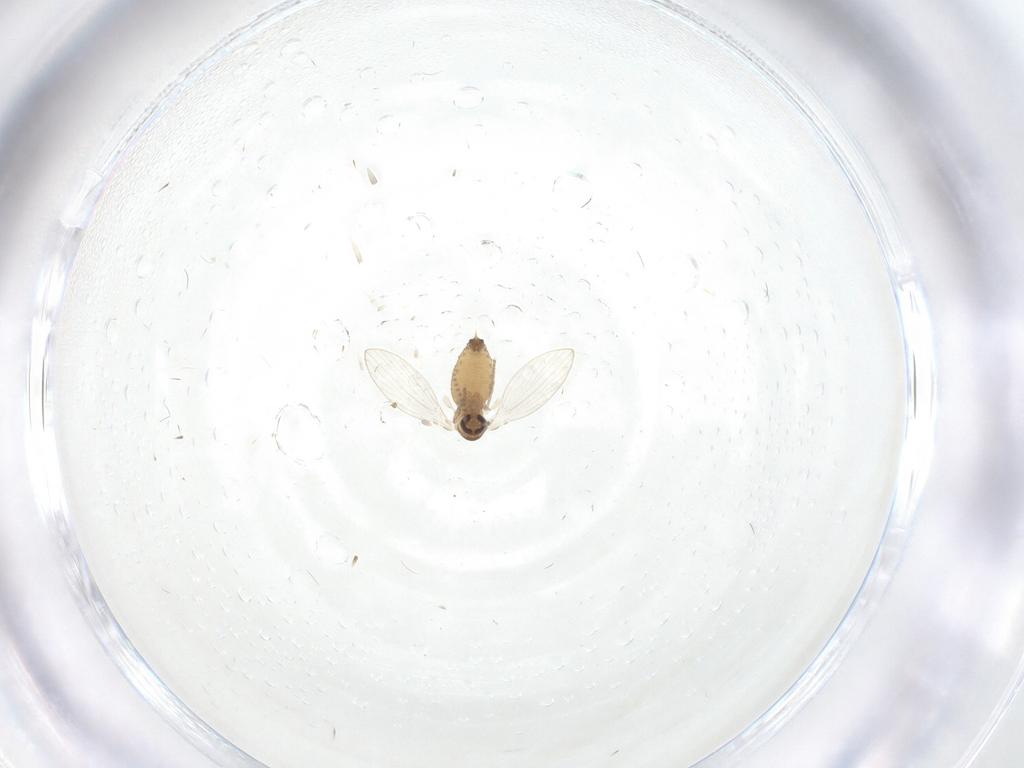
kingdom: Animalia
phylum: Arthropoda
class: Insecta
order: Diptera
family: Psychodidae
